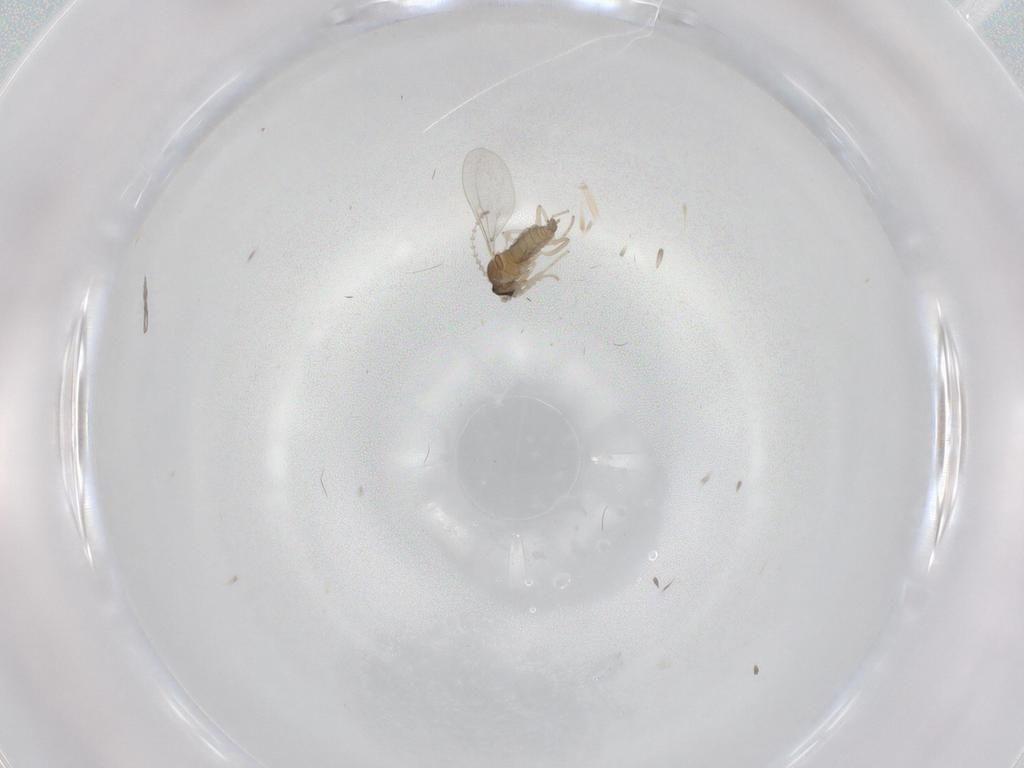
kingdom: Animalia
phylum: Arthropoda
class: Insecta
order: Diptera
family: Cecidomyiidae
